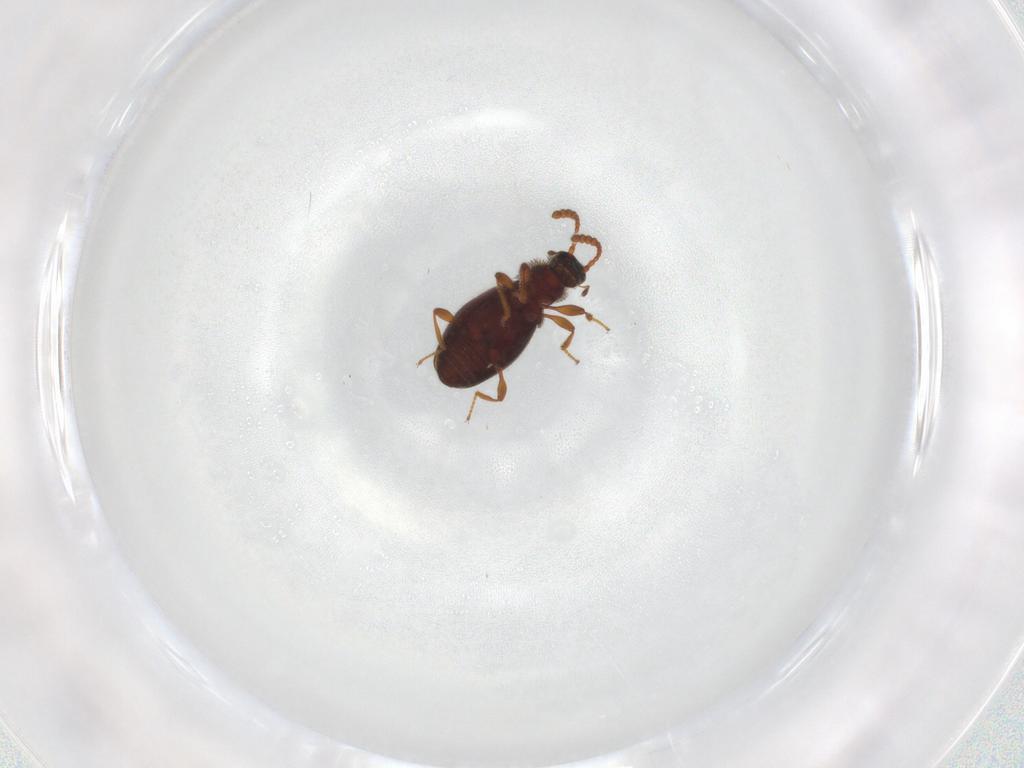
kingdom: Animalia
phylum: Arthropoda
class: Insecta
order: Coleoptera
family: Staphylinidae
